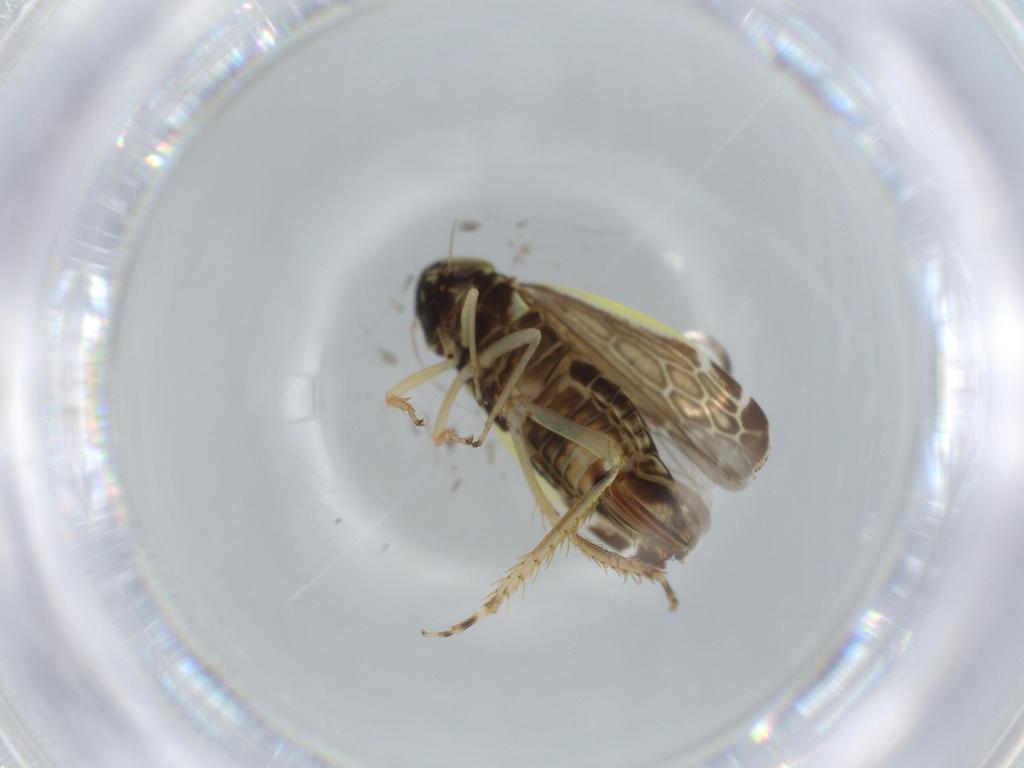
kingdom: Animalia
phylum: Arthropoda
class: Insecta
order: Hemiptera
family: Cicadellidae
